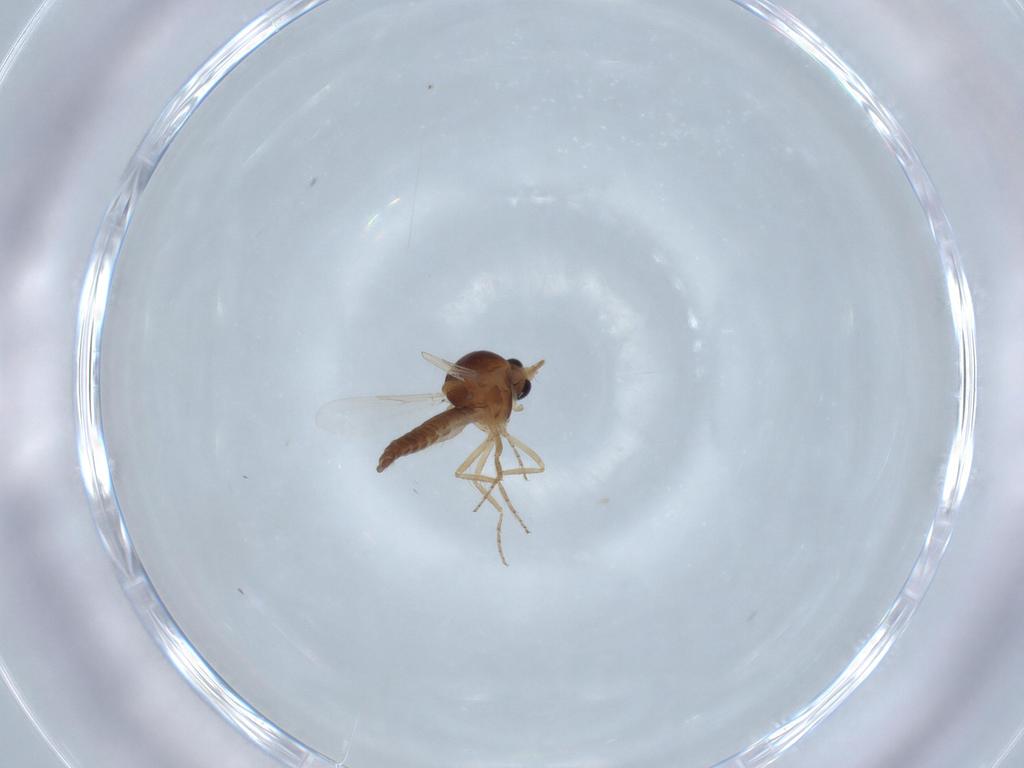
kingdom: Animalia
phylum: Arthropoda
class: Insecta
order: Diptera
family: Ceratopogonidae
